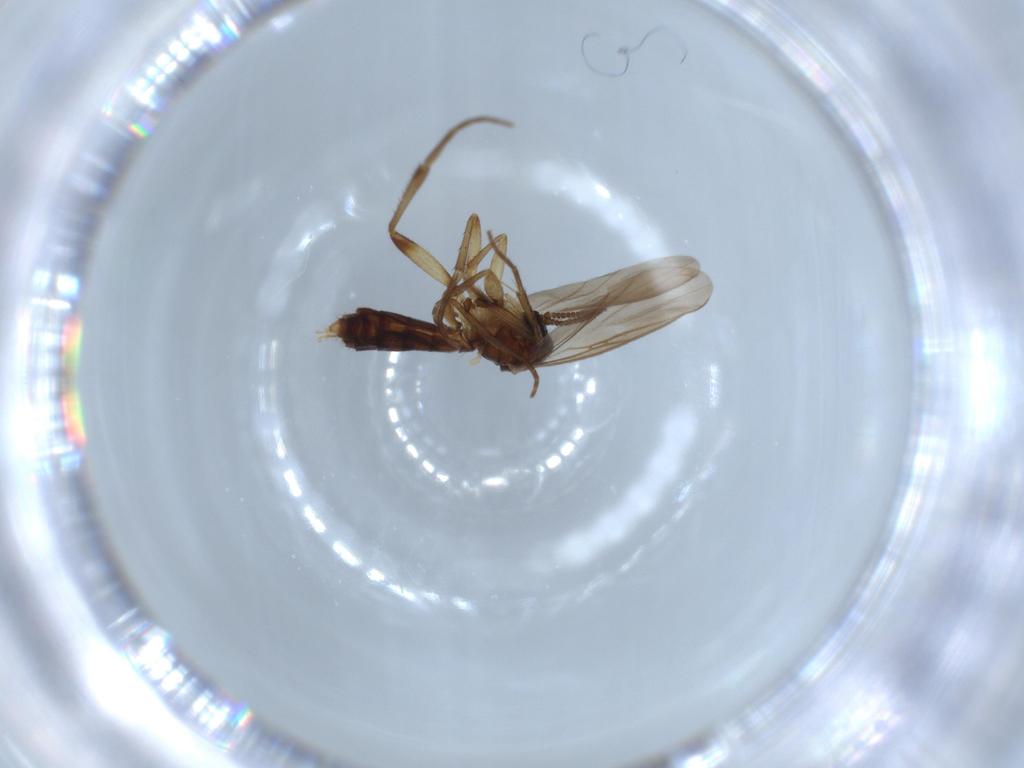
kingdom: Animalia
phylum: Arthropoda
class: Insecta
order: Diptera
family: Mycetophilidae
